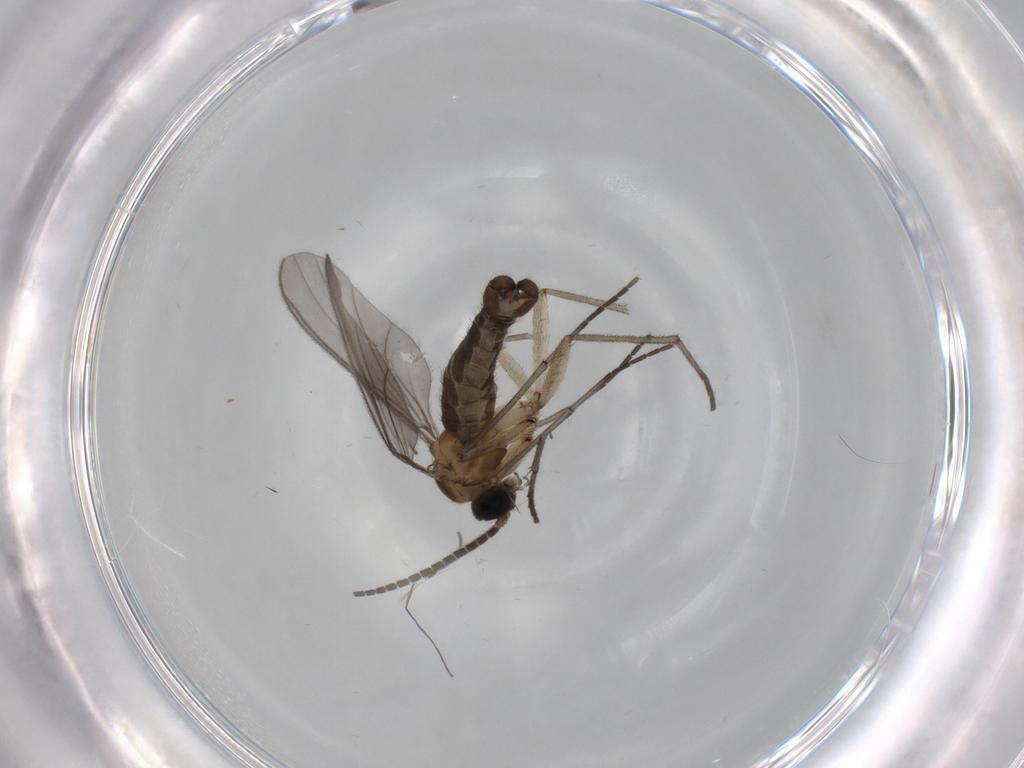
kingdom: Animalia
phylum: Arthropoda
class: Insecta
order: Diptera
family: Sciaridae
